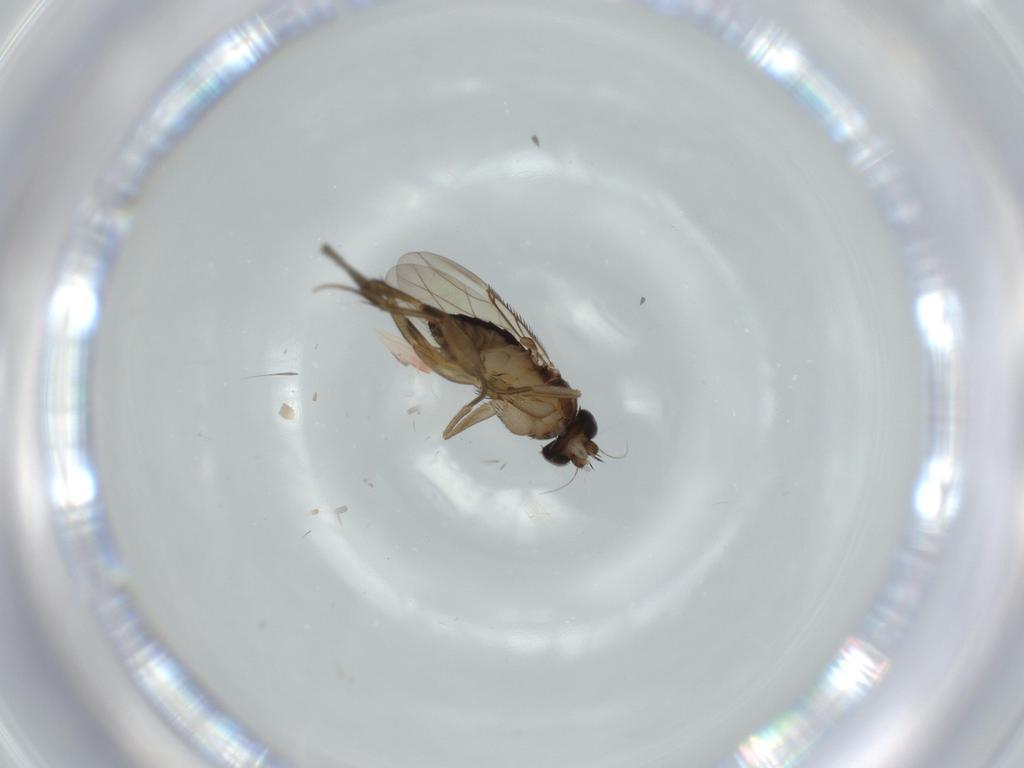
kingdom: Animalia
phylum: Arthropoda
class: Insecta
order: Diptera
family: Phoridae
